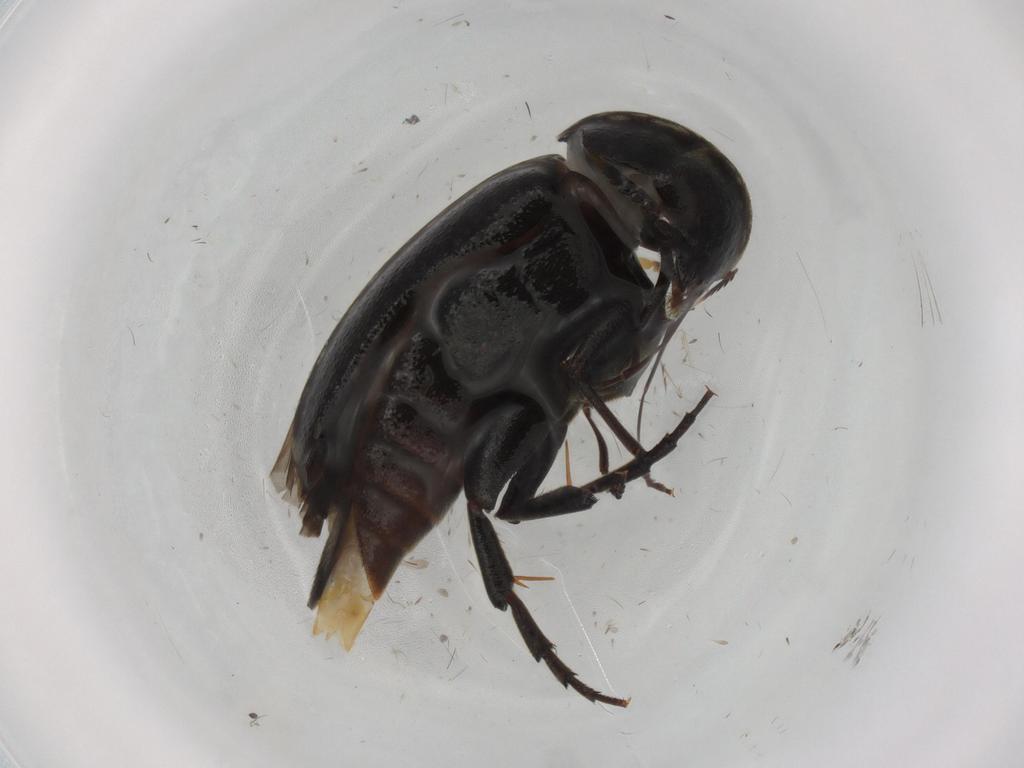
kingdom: Animalia
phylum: Arthropoda
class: Insecta
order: Coleoptera
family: Mordellidae
